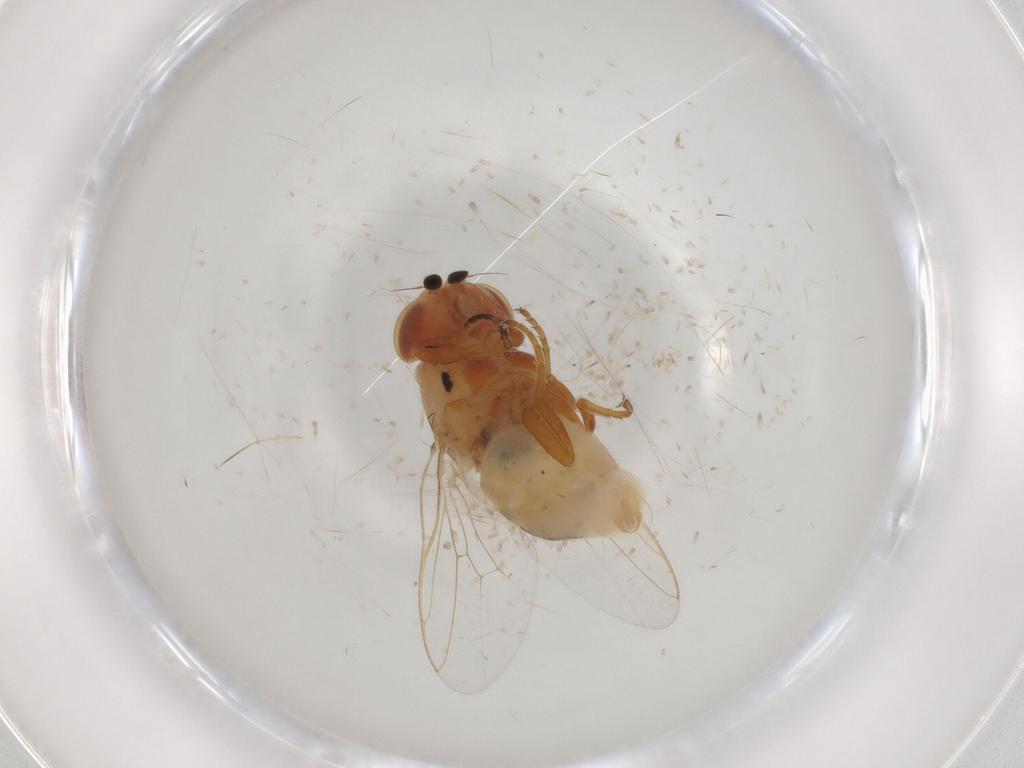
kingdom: Animalia
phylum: Arthropoda
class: Insecta
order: Diptera
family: Chloropidae
